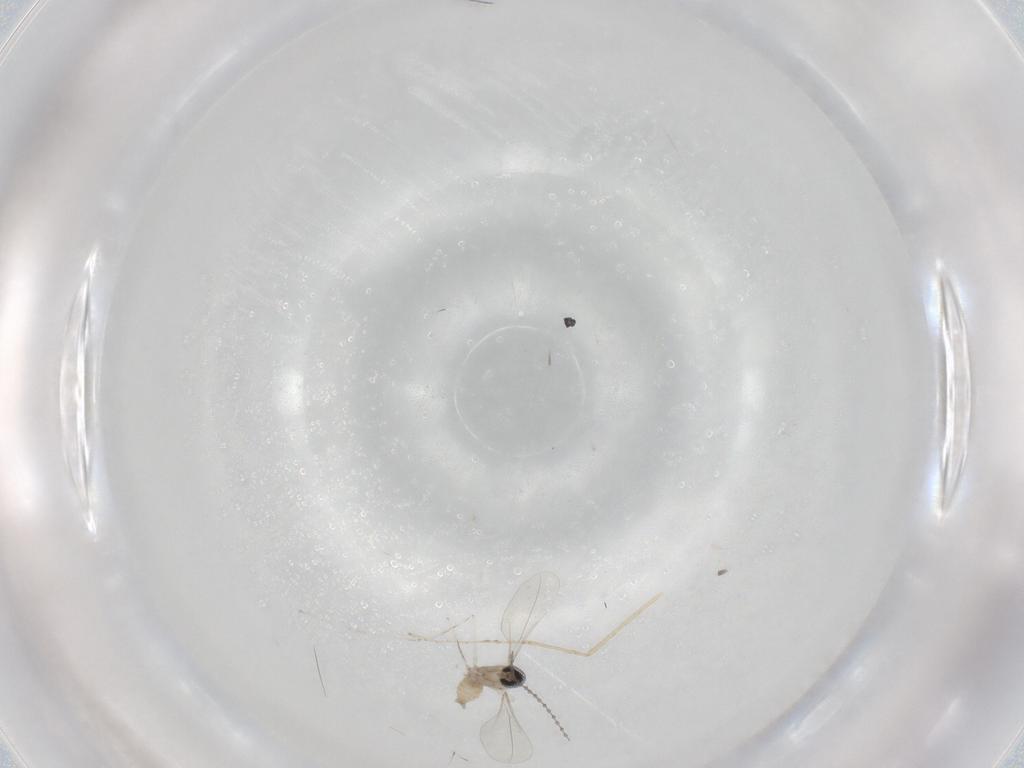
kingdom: Animalia
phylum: Arthropoda
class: Insecta
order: Diptera
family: Cecidomyiidae
